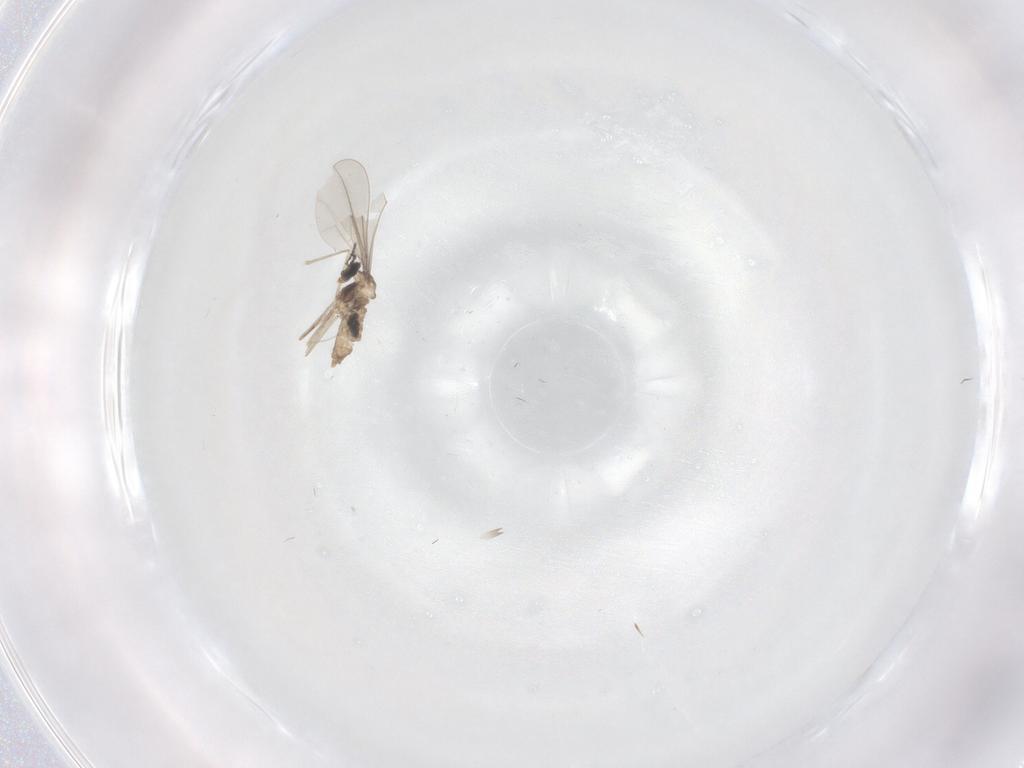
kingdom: Animalia
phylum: Arthropoda
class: Insecta
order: Diptera
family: Cecidomyiidae
